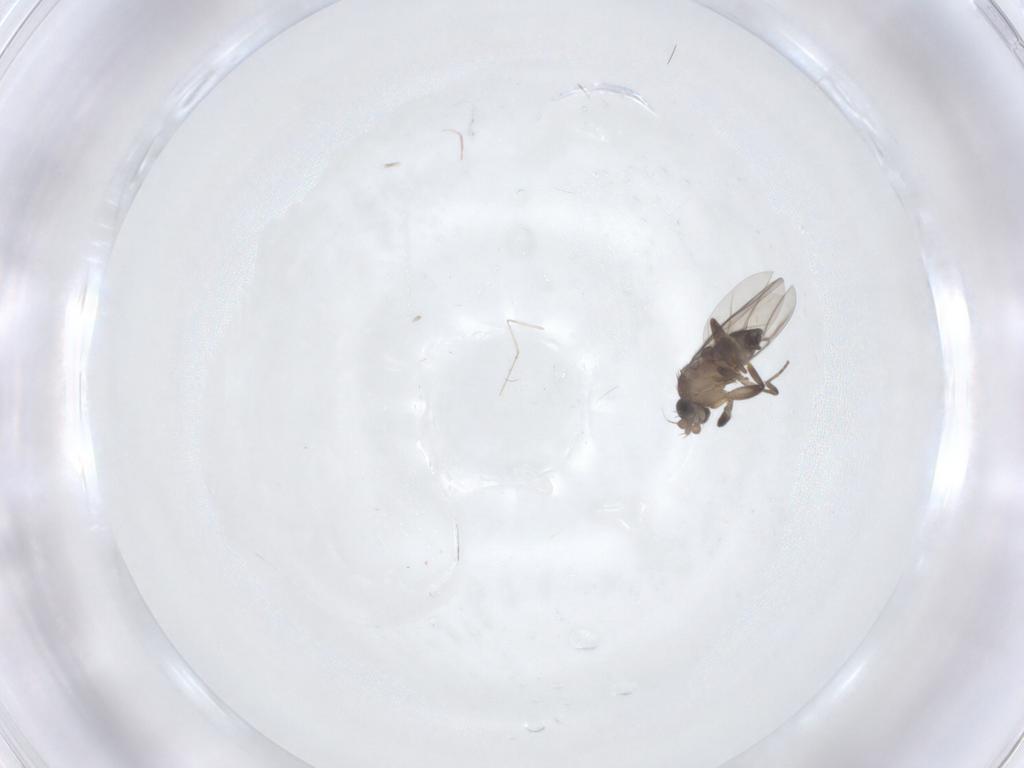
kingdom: Animalia
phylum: Arthropoda
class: Insecta
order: Diptera
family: Phoridae
